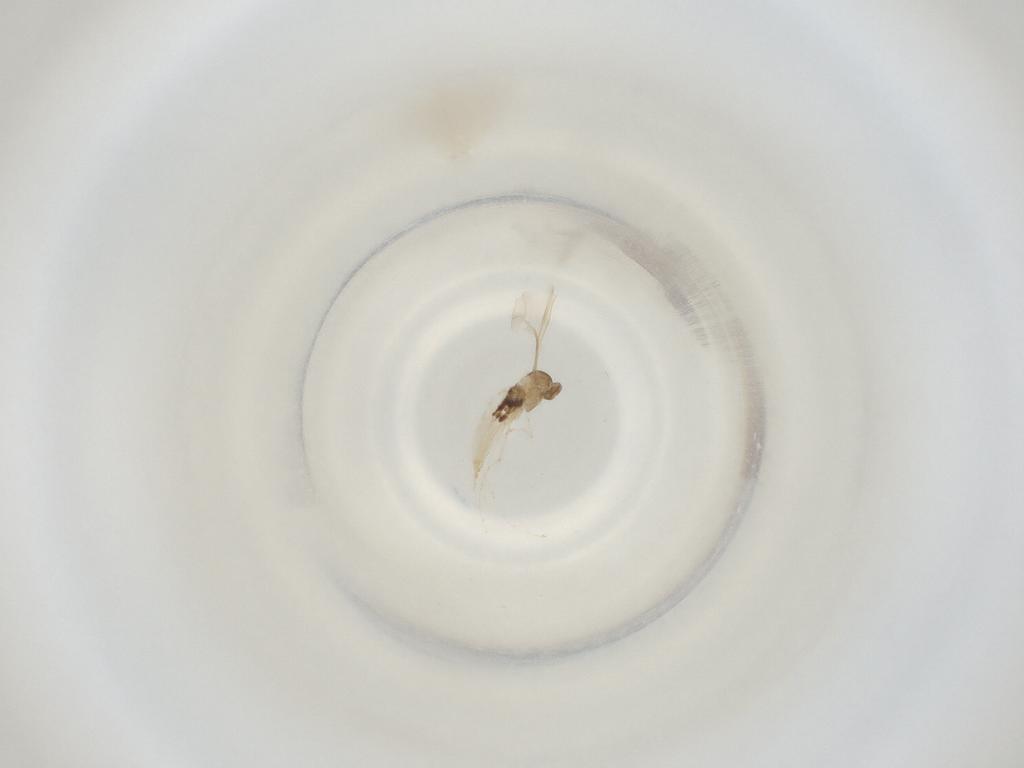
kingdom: Animalia
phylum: Arthropoda
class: Insecta
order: Diptera
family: Cecidomyiidae
